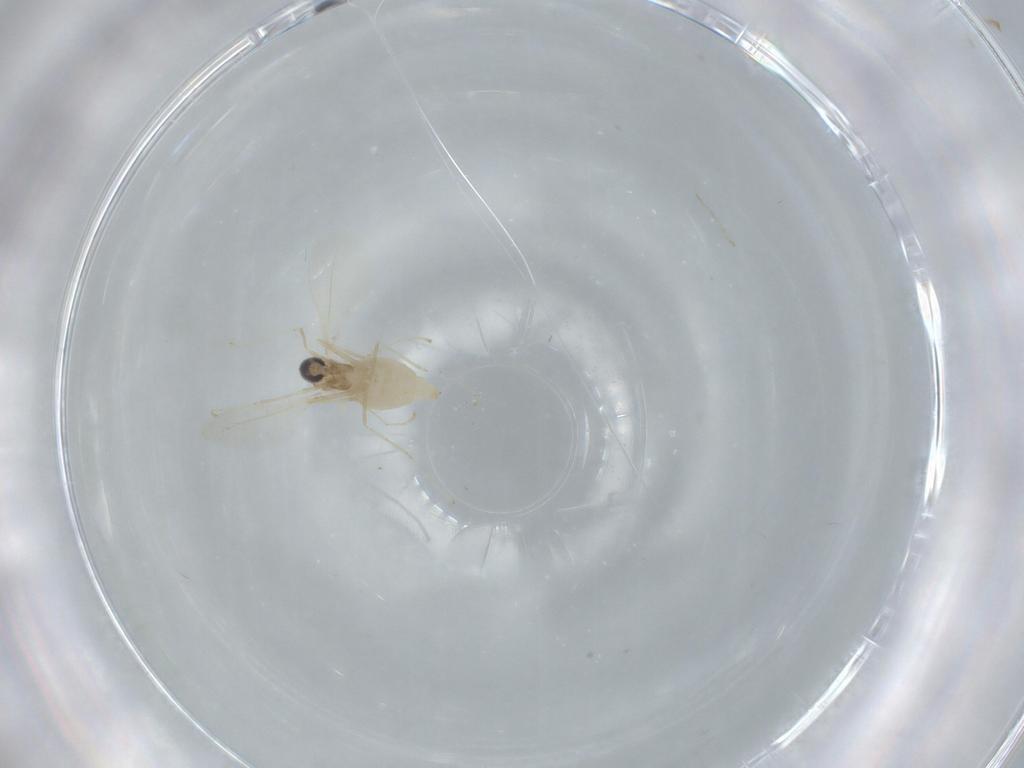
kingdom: Animalia
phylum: Arthropoda
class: Insecta
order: Diptera
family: Cecidomyiidae
